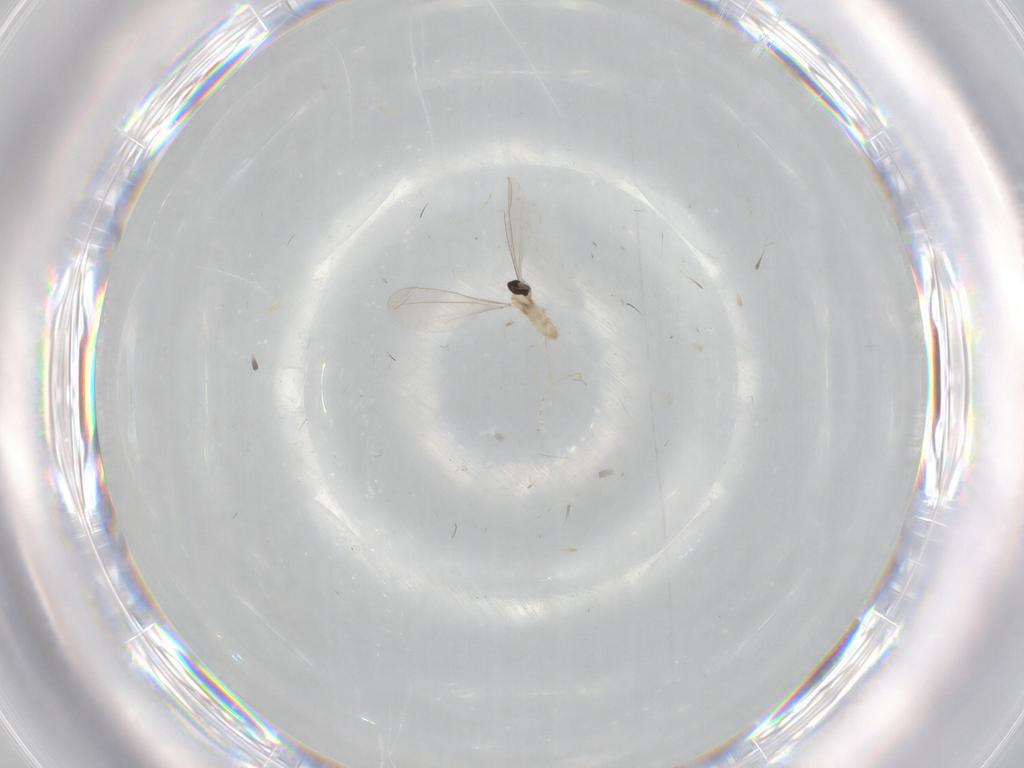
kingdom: Animalia
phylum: Arthropoda
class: Insecta
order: Diptera
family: Cecidomyiidae
